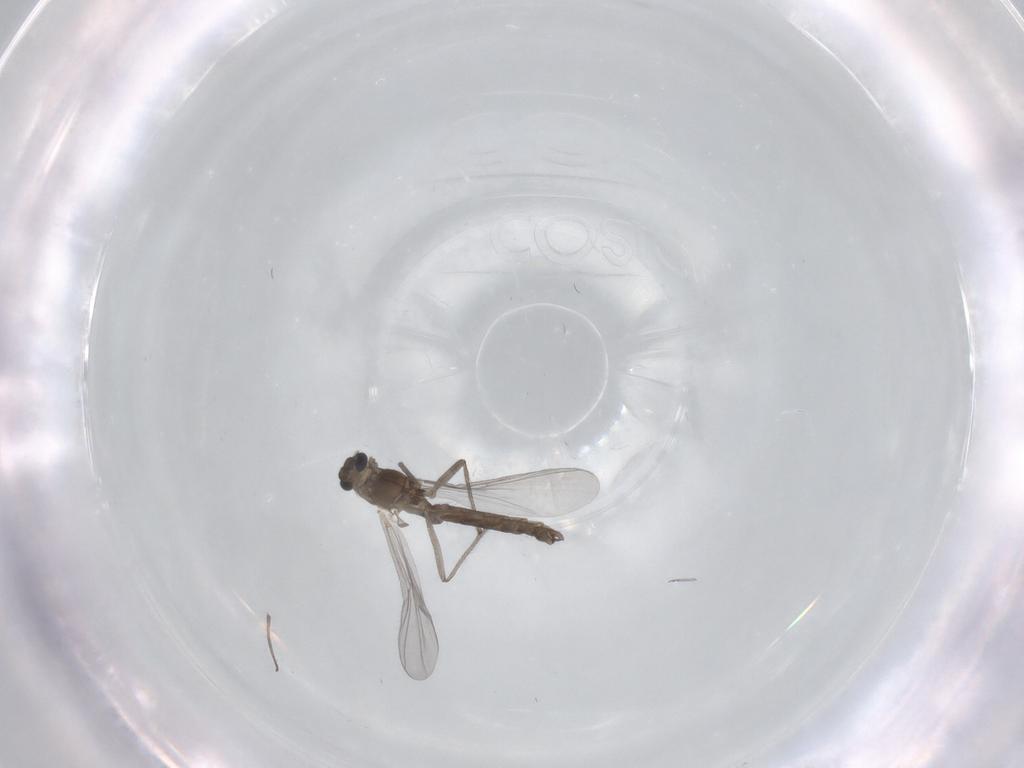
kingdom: Animalia
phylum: Arthropoda
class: Insecta
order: Diptera
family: Chironomidae
